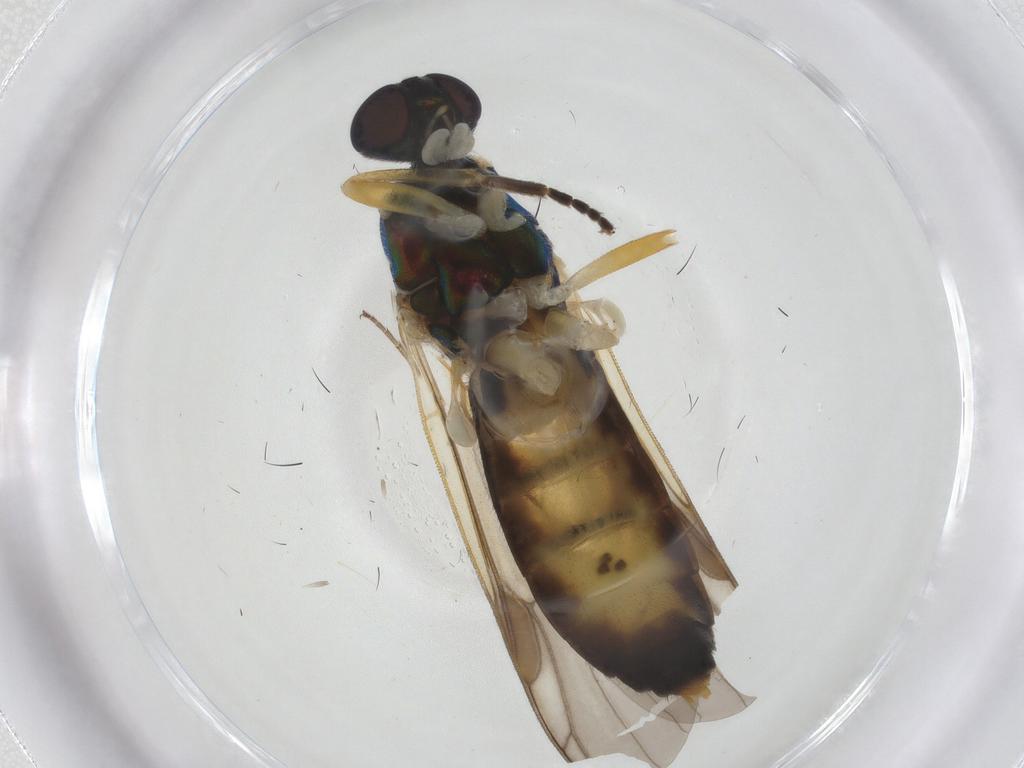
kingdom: Animalia
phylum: Arthropoda
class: Insecta
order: Diptera
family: Stratiomyidae
